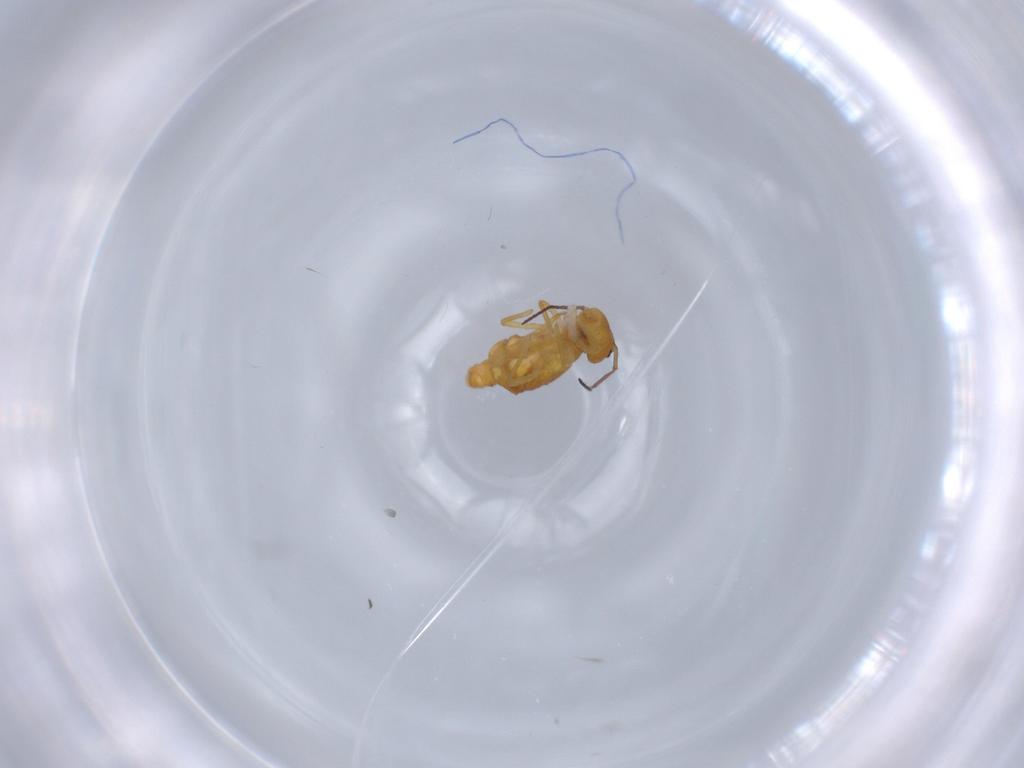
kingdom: Animalia
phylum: Arthropoda
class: Collembola
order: Symphypleona
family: Bourletiellidae
